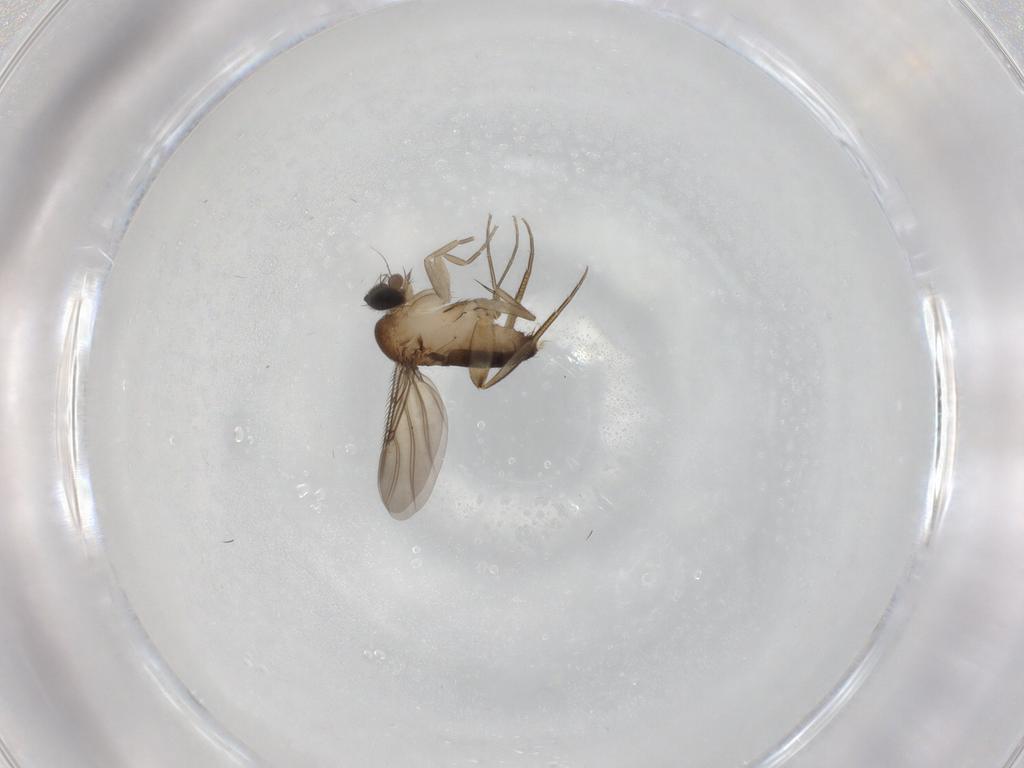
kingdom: Animalia
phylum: Arthropoda
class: Insecta
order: Diptera
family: Phoridae
